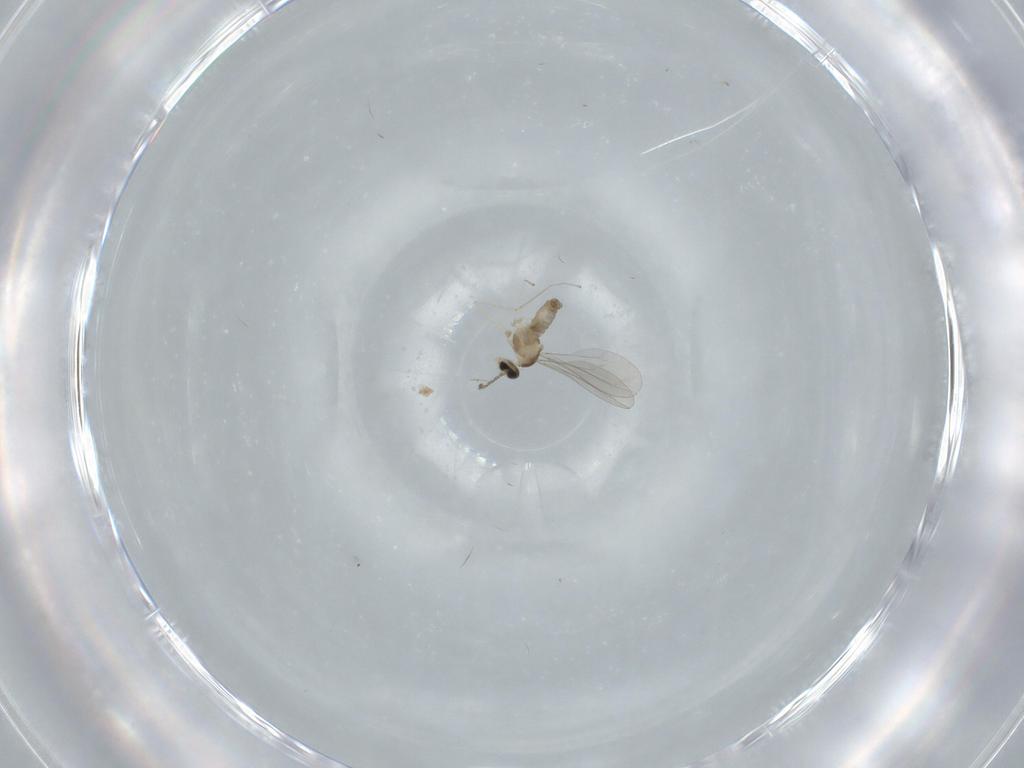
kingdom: Animalia
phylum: Arthropoda
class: Insecta
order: Diptera
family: Cecidomyiidae
